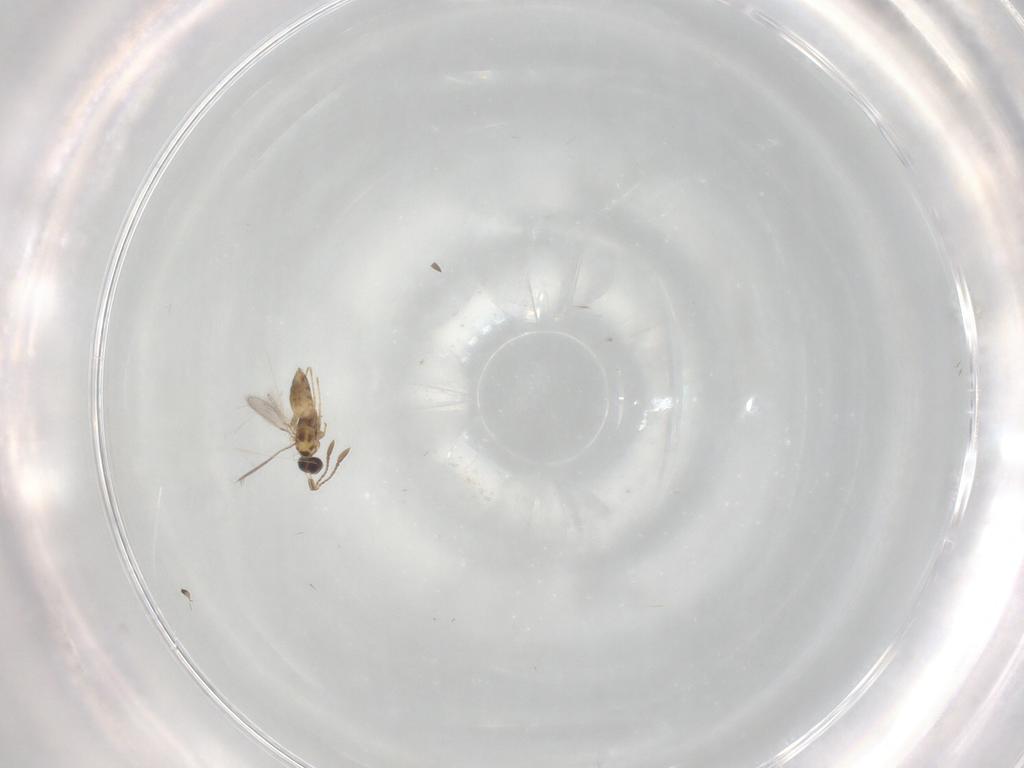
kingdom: Animalia
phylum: Arthropoda
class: Insecta
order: Hymenoptera
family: Mymaridae
